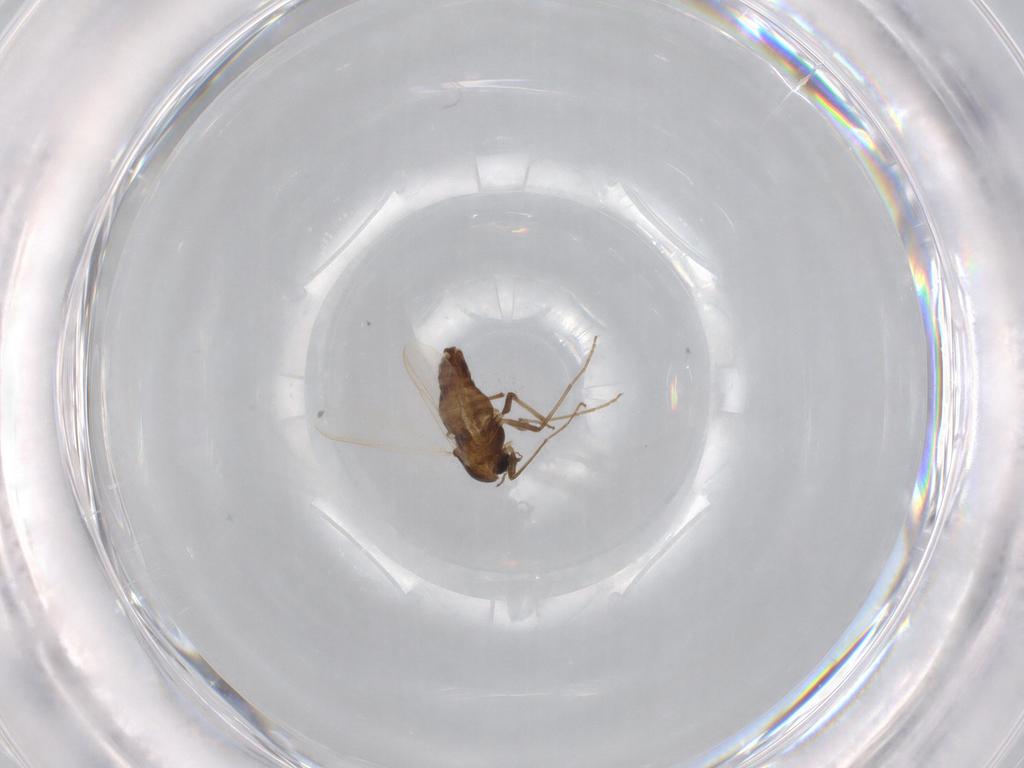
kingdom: Animalia
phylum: Arthropoda
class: Insecta
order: Diptera
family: Chironomidae
